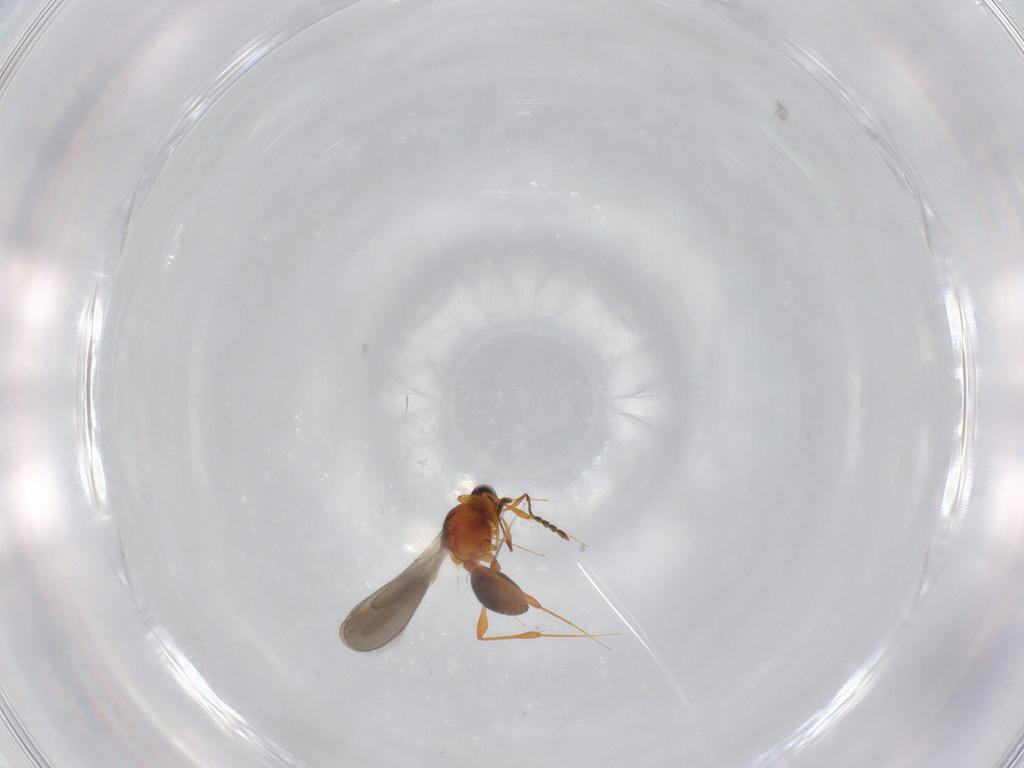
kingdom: Animalia
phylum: Arthropoda
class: Insecta
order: Hymenoptera
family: Platygastridae
